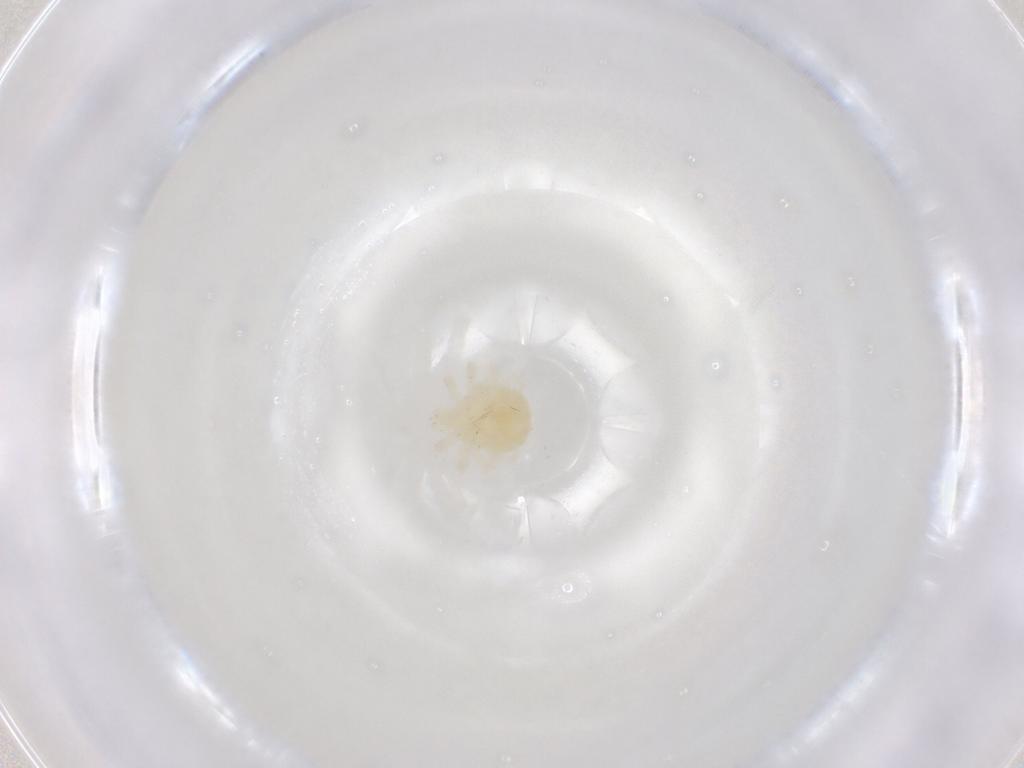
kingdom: Animalia
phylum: Arthropoda
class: Arachnida
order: Trombidiformes
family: Anystidae
